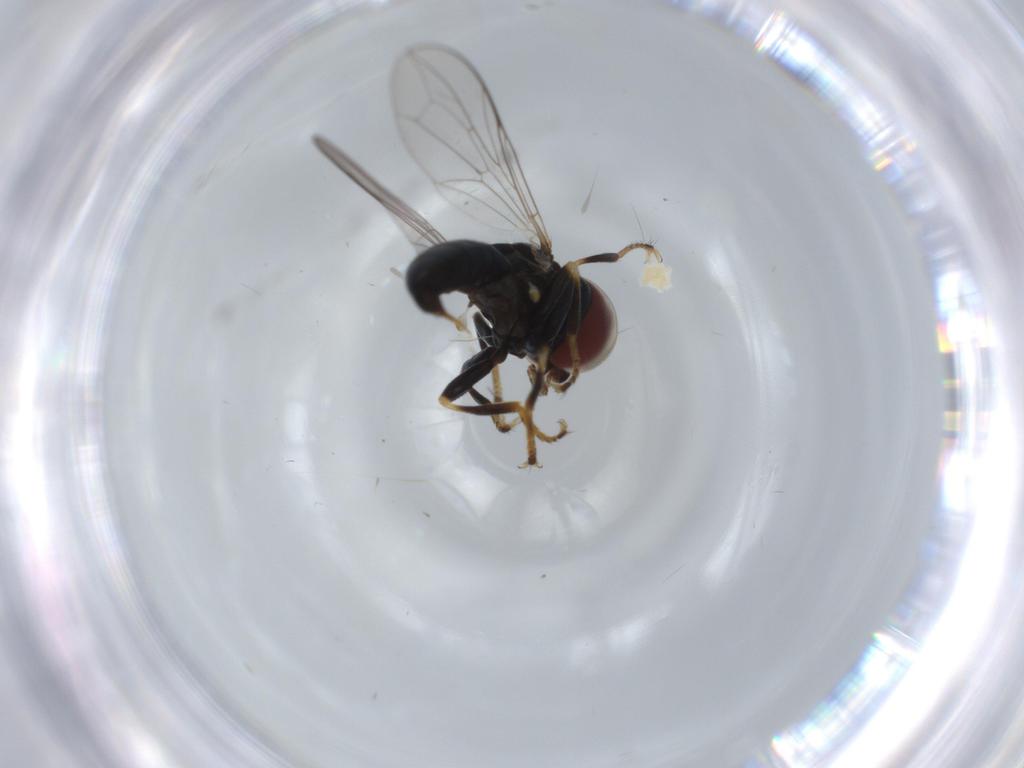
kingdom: Animalia
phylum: Arthropoda
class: Insecta
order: Diptera
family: Pipunculidae
